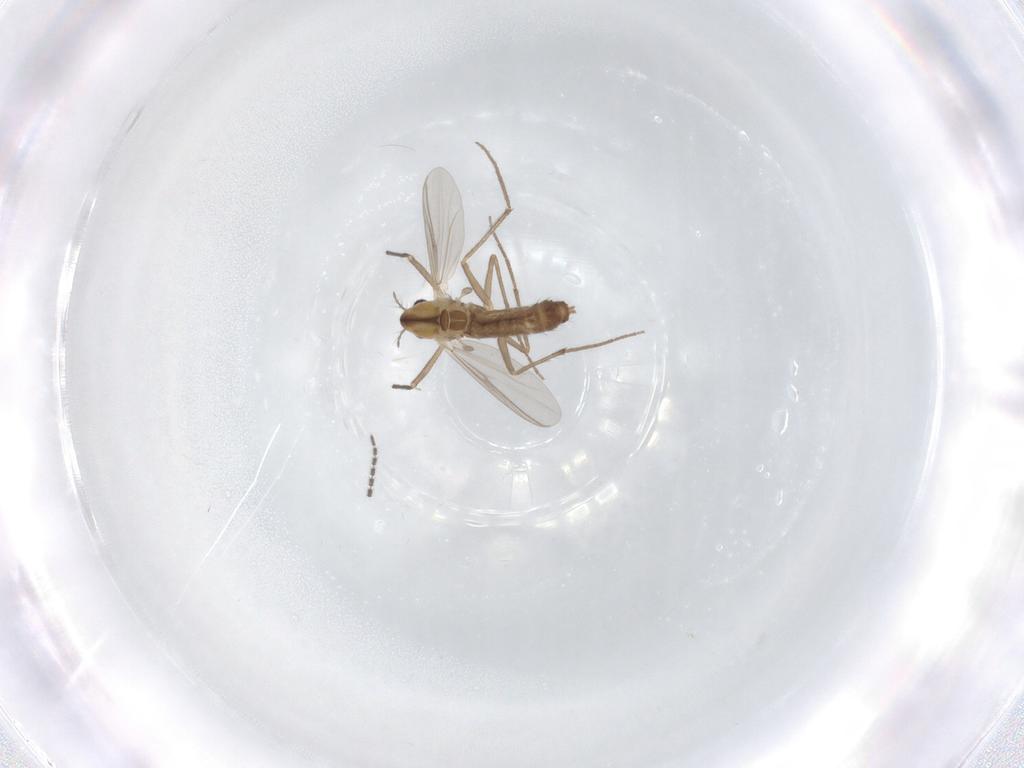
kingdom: Animalia
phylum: Arthropoda
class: Insecta
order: Diptera
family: Chironomidae
